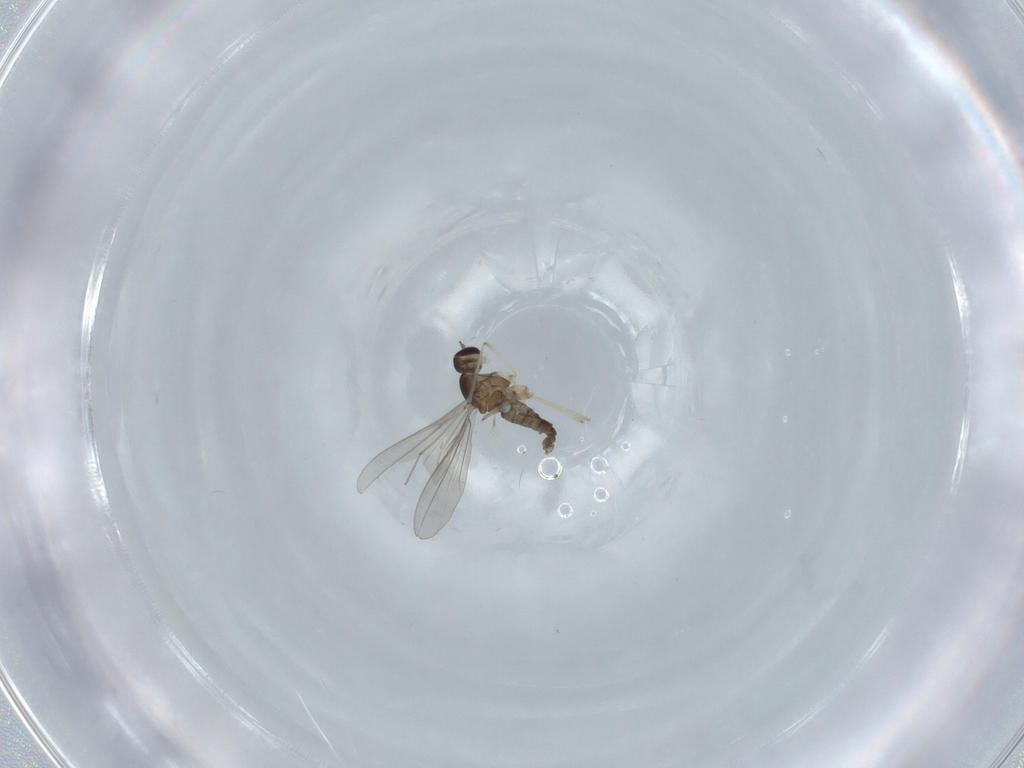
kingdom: Animalia
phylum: Arthropoda
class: Insecta
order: Diptera
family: Cecidomyiidae
